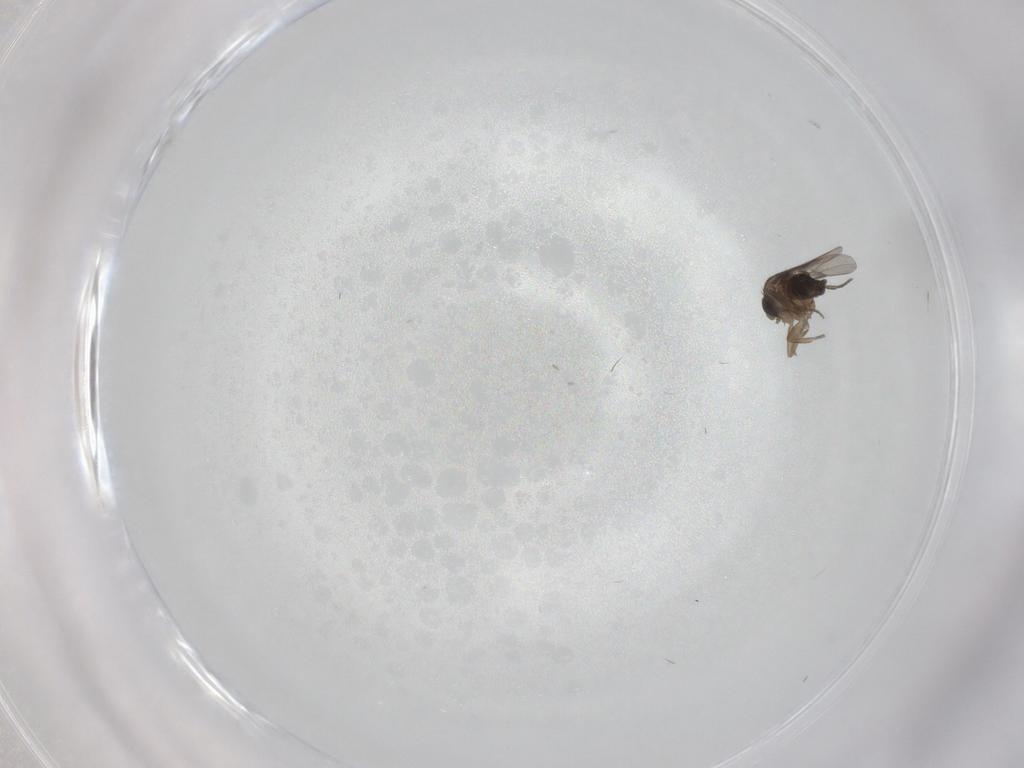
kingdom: Animalia
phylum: Arthropoda
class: Insecta
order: Diptera
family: Phoridae
